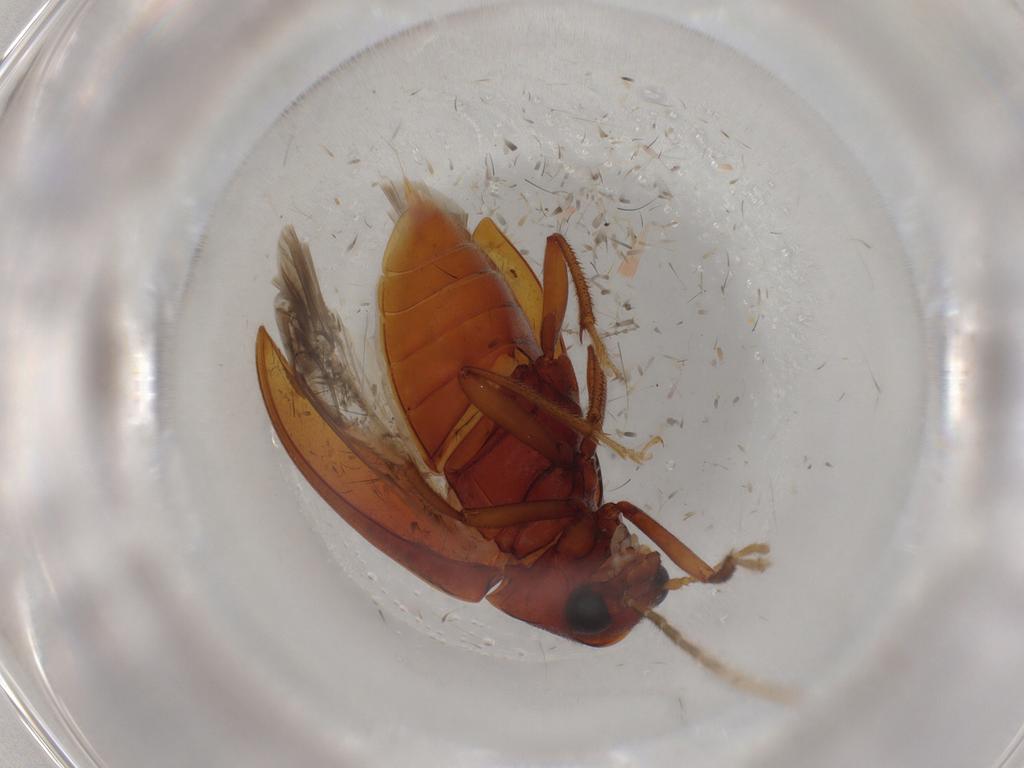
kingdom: Animalia
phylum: Arthropoda
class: Insecta
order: Coleoptera
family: Ptilodactylidae
